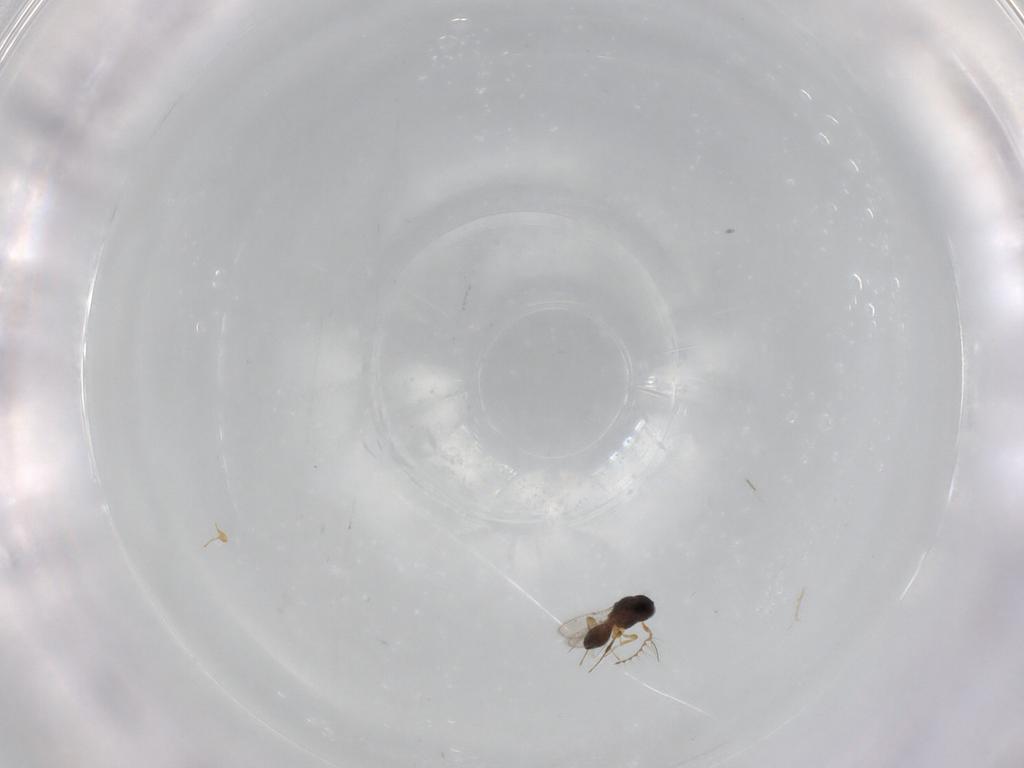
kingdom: Animalia
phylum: Arthropoda
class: Insecta
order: Hymenoptera
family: Platygastridae
